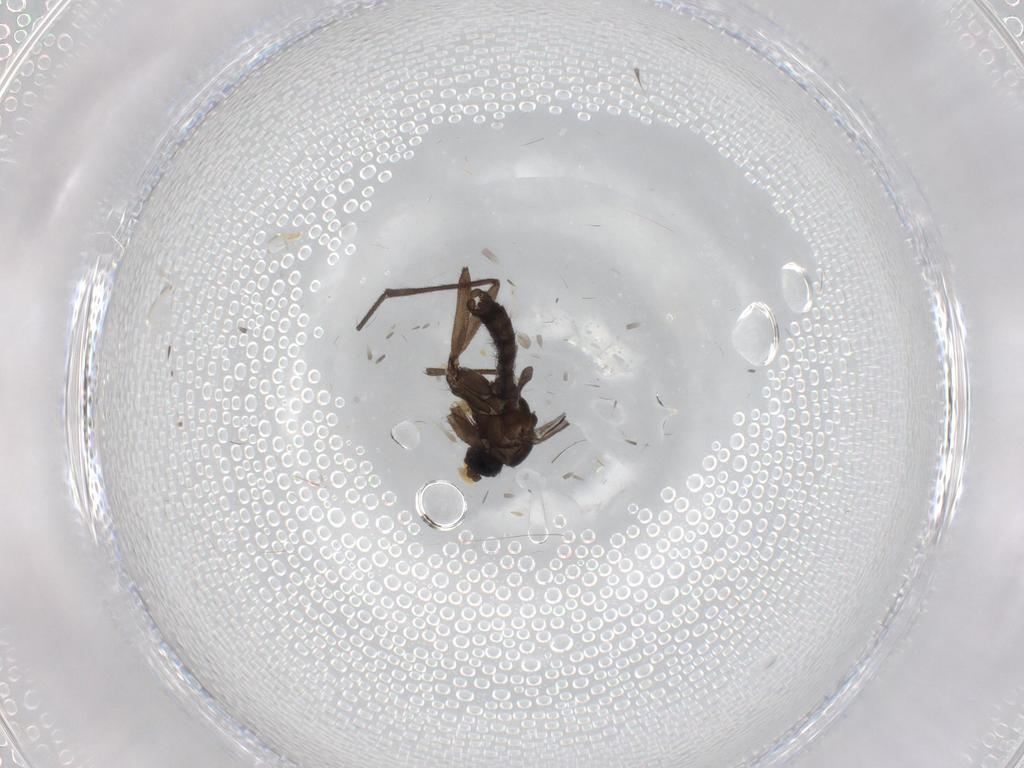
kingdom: Animalia
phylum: Arthropoda
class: Insecta
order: Diptera
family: Sciaridae
